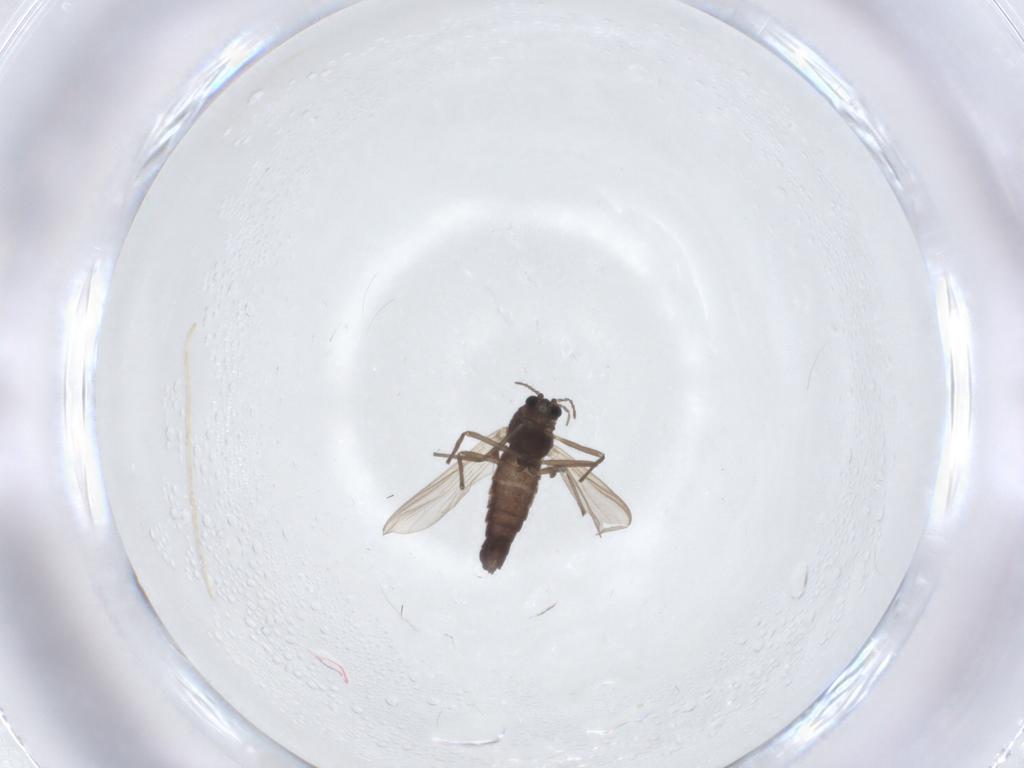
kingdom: Animalia
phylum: Arthropoda
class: Insecta
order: Diptera
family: Chironomidae
